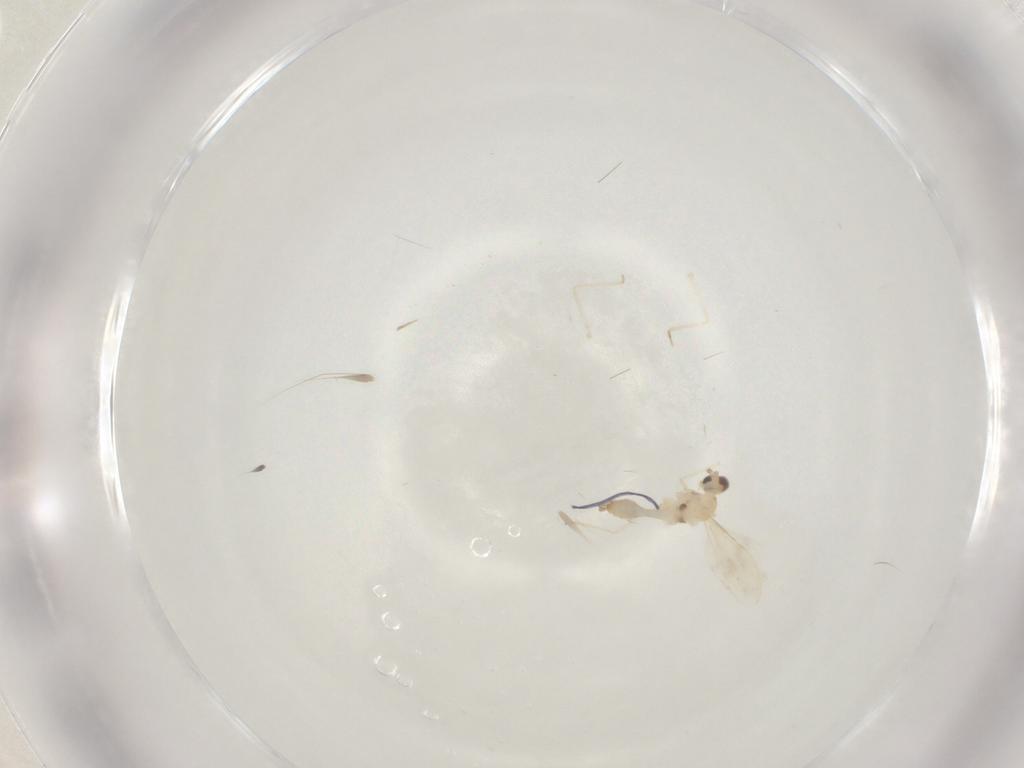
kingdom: Animalia
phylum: Arthropoda
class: Insecta
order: Diptera
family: Cecidomyiidae
